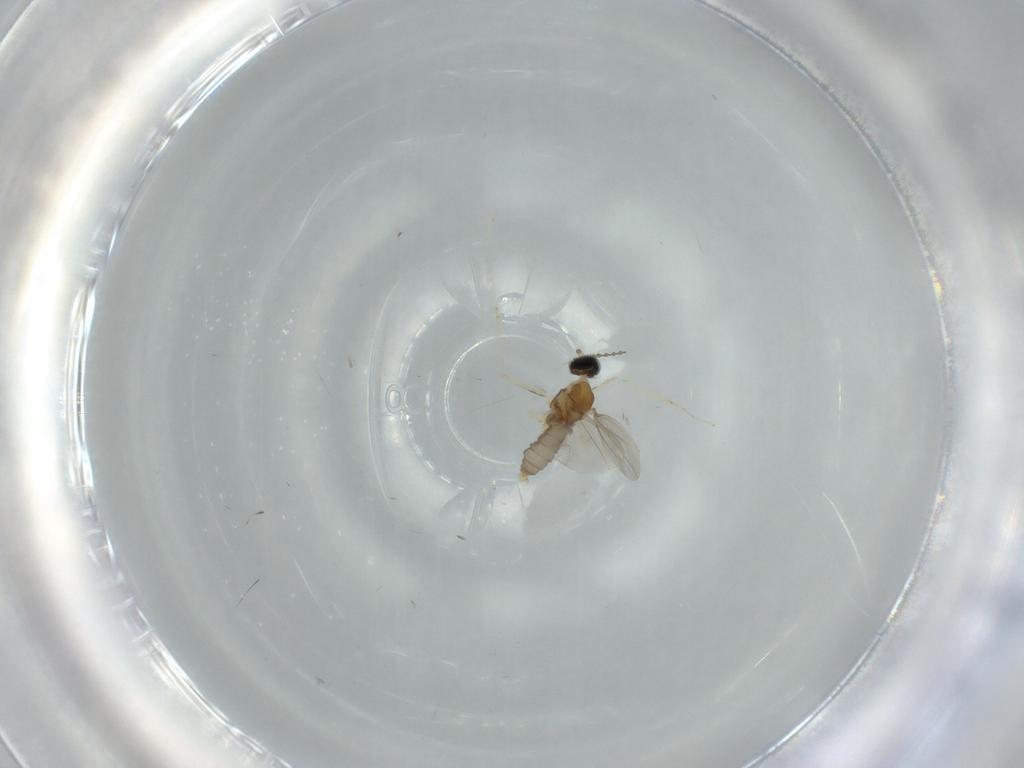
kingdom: Animalia
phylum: Arthropoda
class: Insecta
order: Diptera
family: Cecidomyiidae
